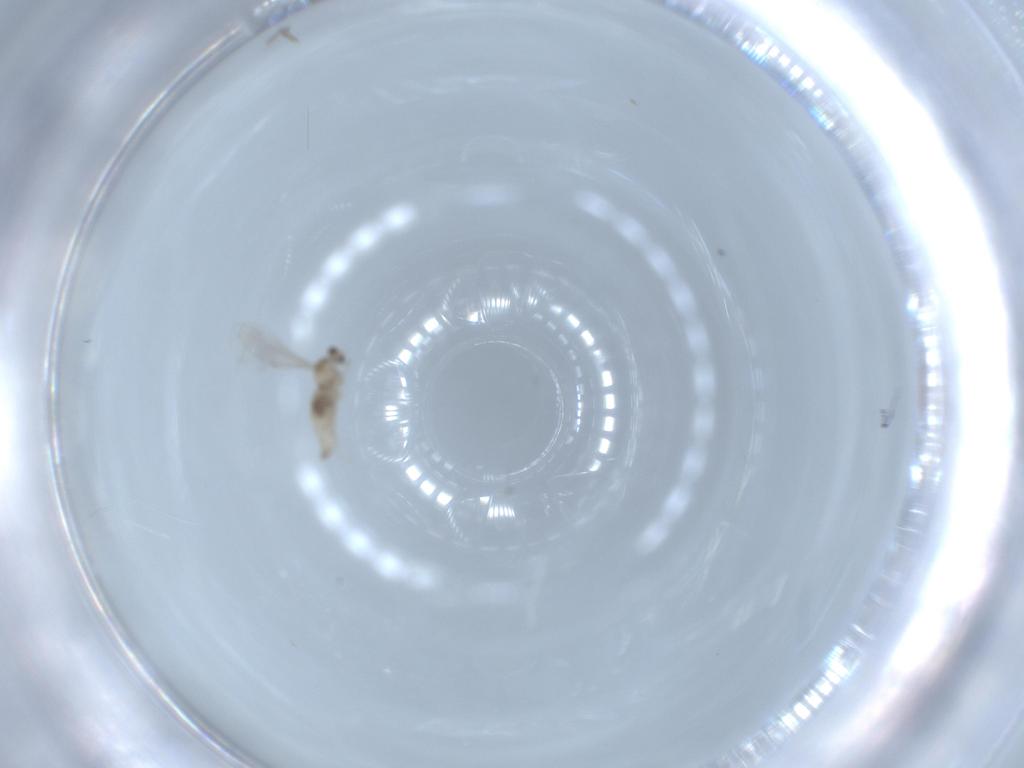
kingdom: Animalia
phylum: Arthropoda
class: Insecta
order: Diptera
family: Cecidomyiidae
